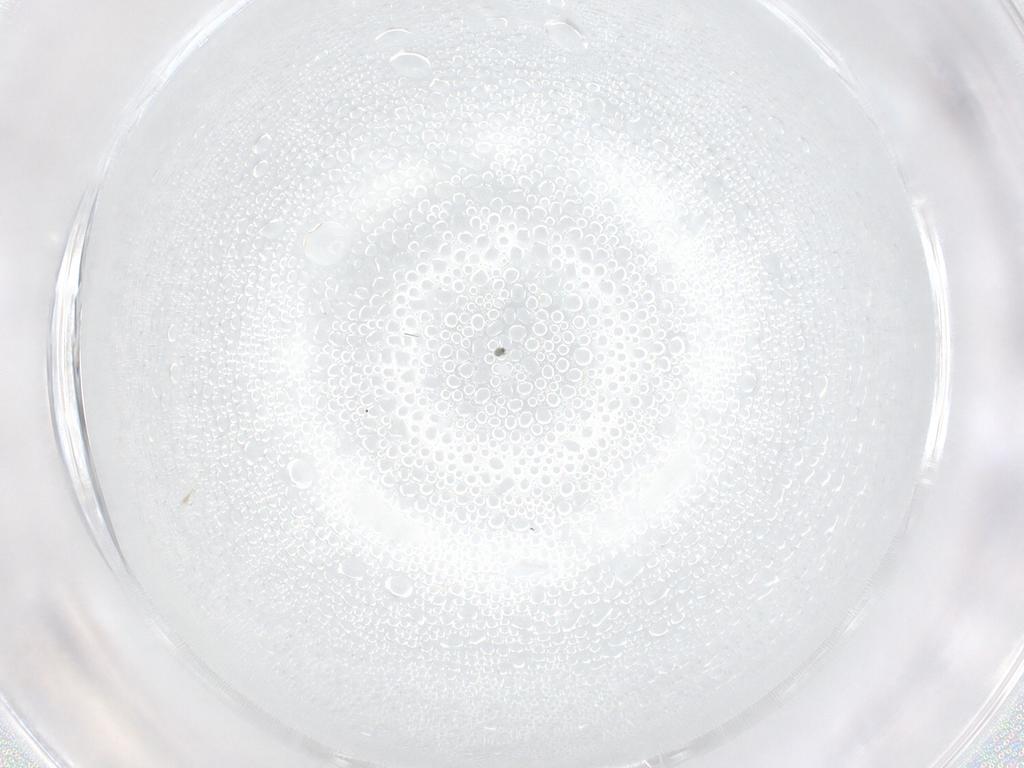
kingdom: Animalia
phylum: Arthropoda
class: Insecta
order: Diptera
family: Cecidomyiidae
